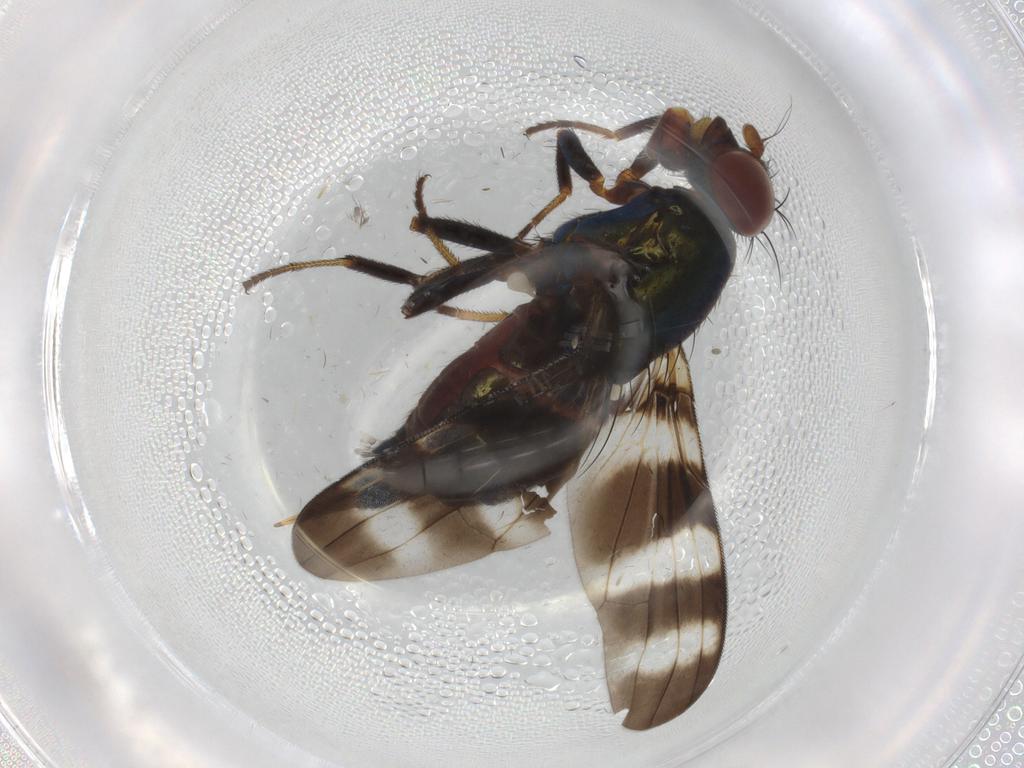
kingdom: Animalia
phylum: Arthropoda
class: Insecta
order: Diptera
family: Ulidiidae
